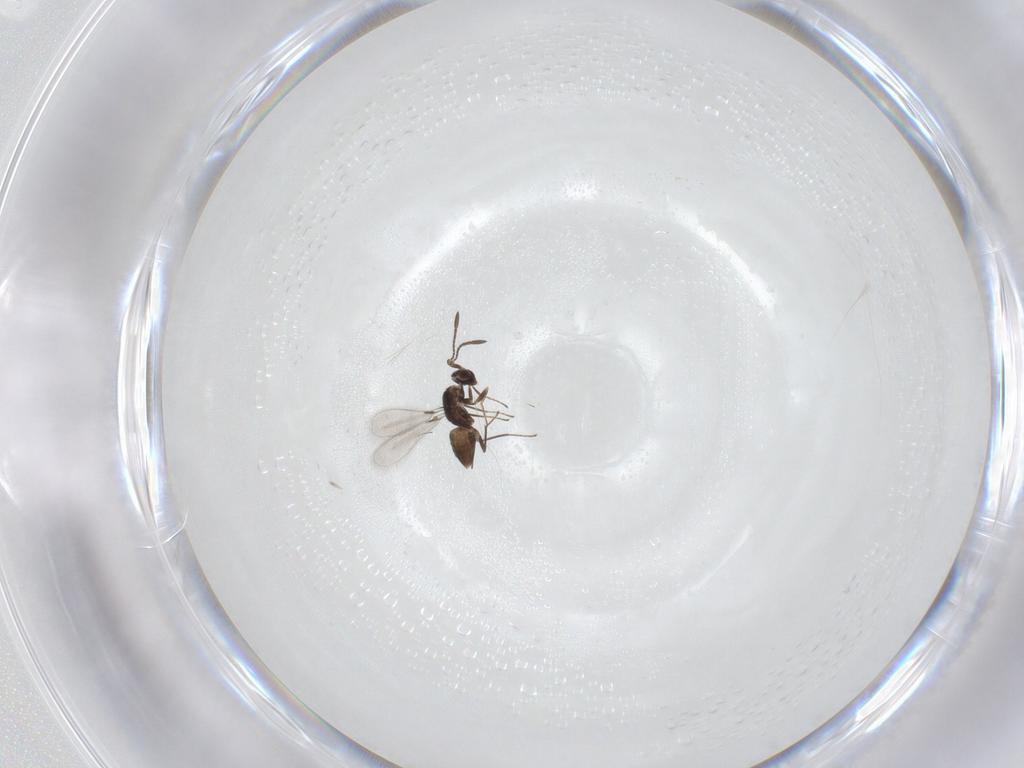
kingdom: Animalia
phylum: Arthropoda
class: Insecta
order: Hymenoptera
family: Mymaridae
